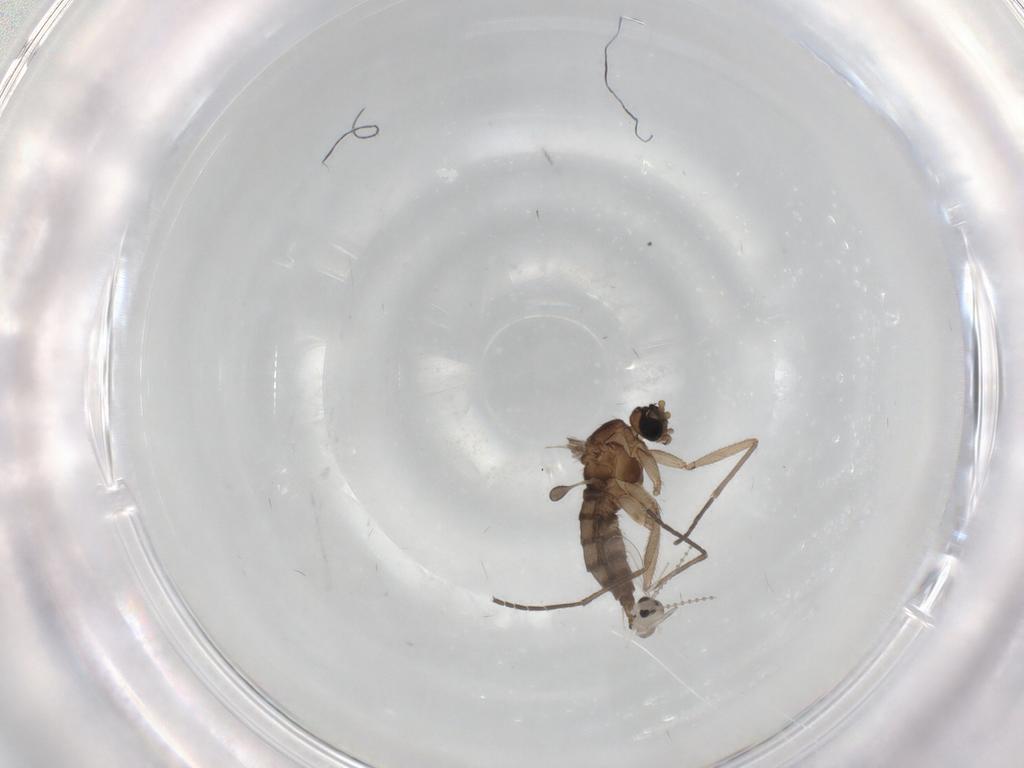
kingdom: Animalia
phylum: Arthropoda
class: Insecta
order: Diptera
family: Cecidomyiidae
